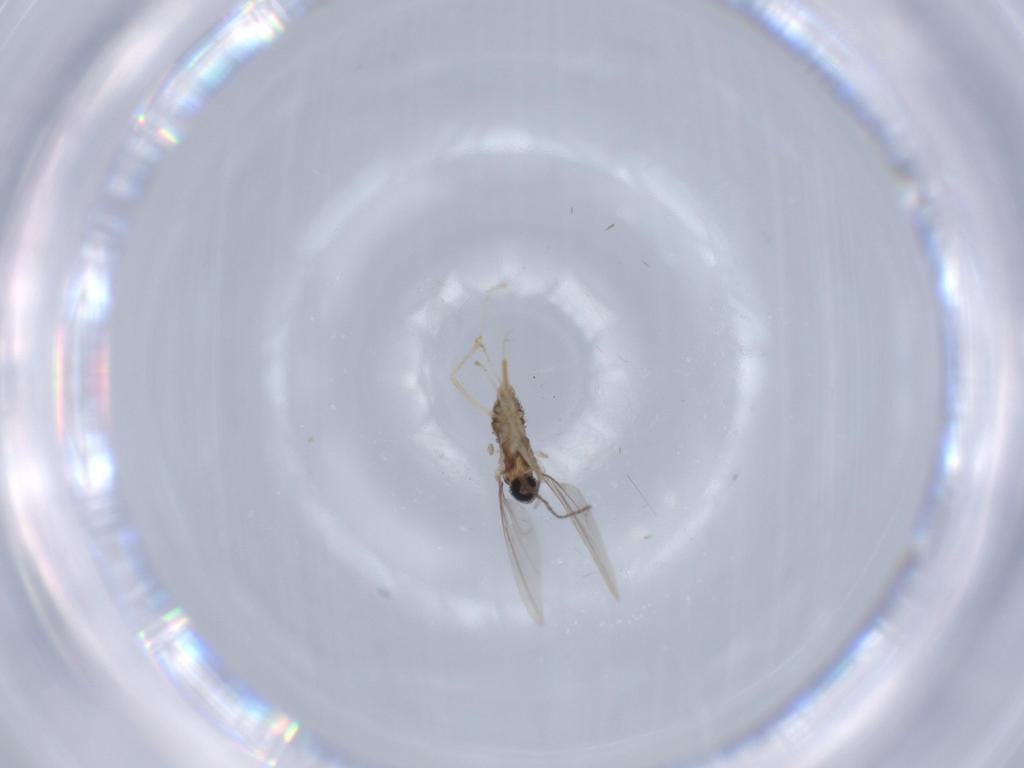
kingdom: Animalia
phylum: Arthropoda
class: Insecta
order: Diptera
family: Cecidomyiidae
